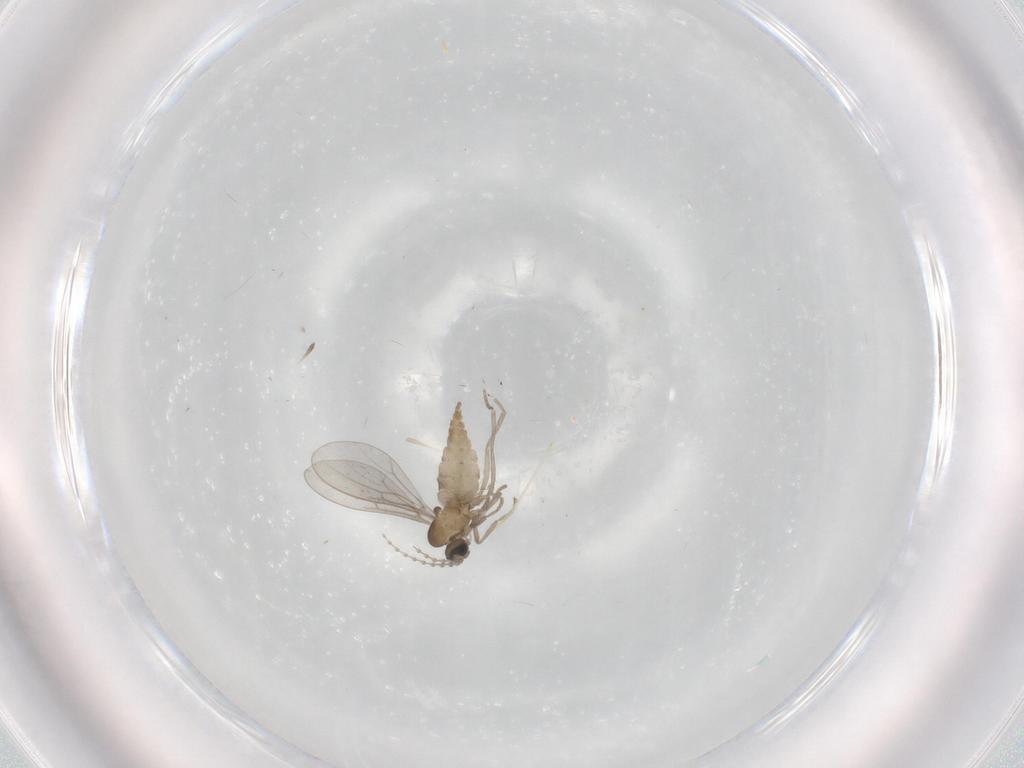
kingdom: Animalia
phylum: Arthropoda
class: Insecta
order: Diptera
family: Cecidomyiidae
